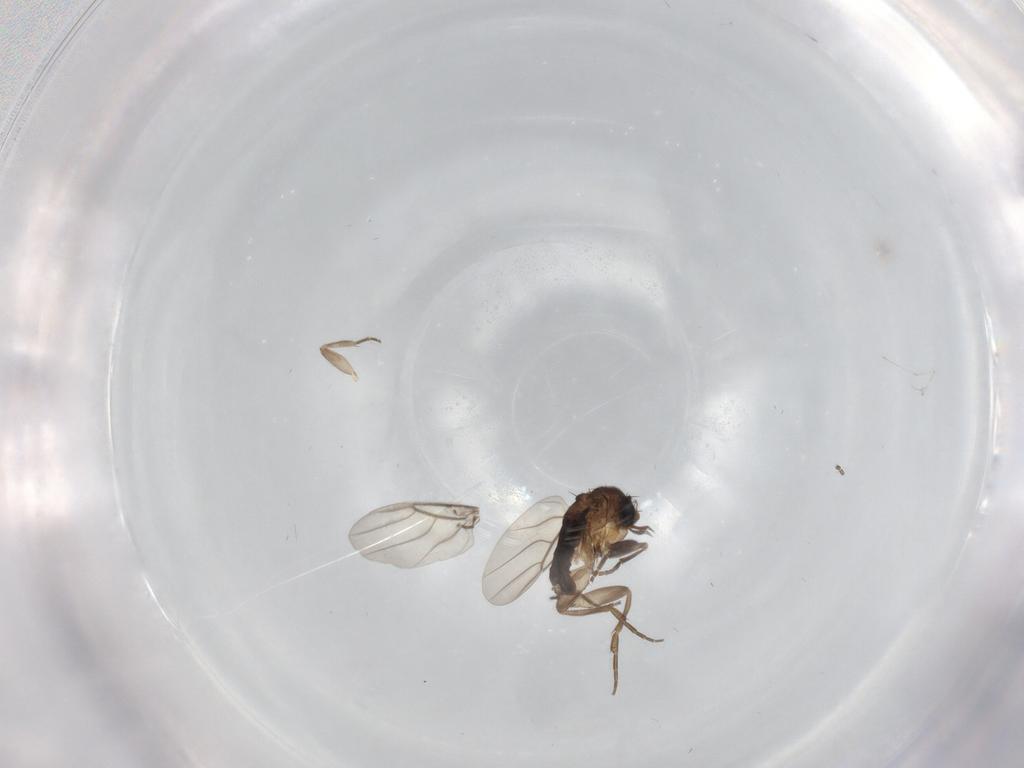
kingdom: Animalia
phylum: Arthropoda
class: Insecta
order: Diptera
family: Phoridae
